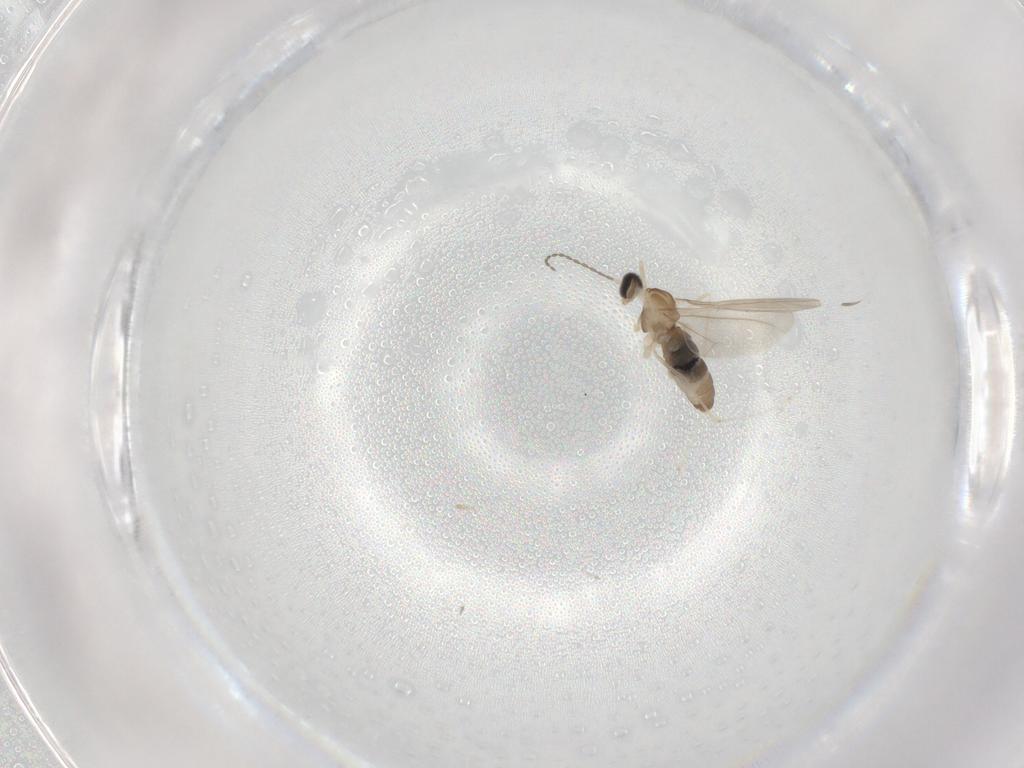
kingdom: Animalia
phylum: Arthropoda
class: Insecta
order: Diptera
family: Cecidomyiidae
